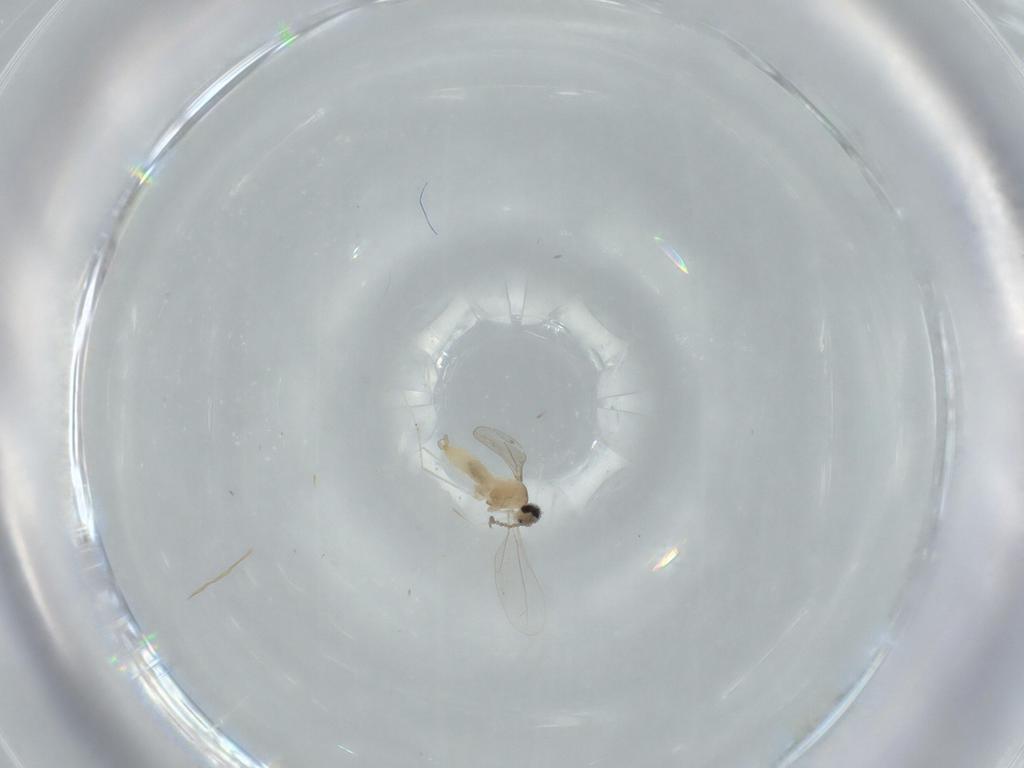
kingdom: Animalia
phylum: Arthropoda
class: Insecta
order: Diptera
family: Cecidomyiidae
